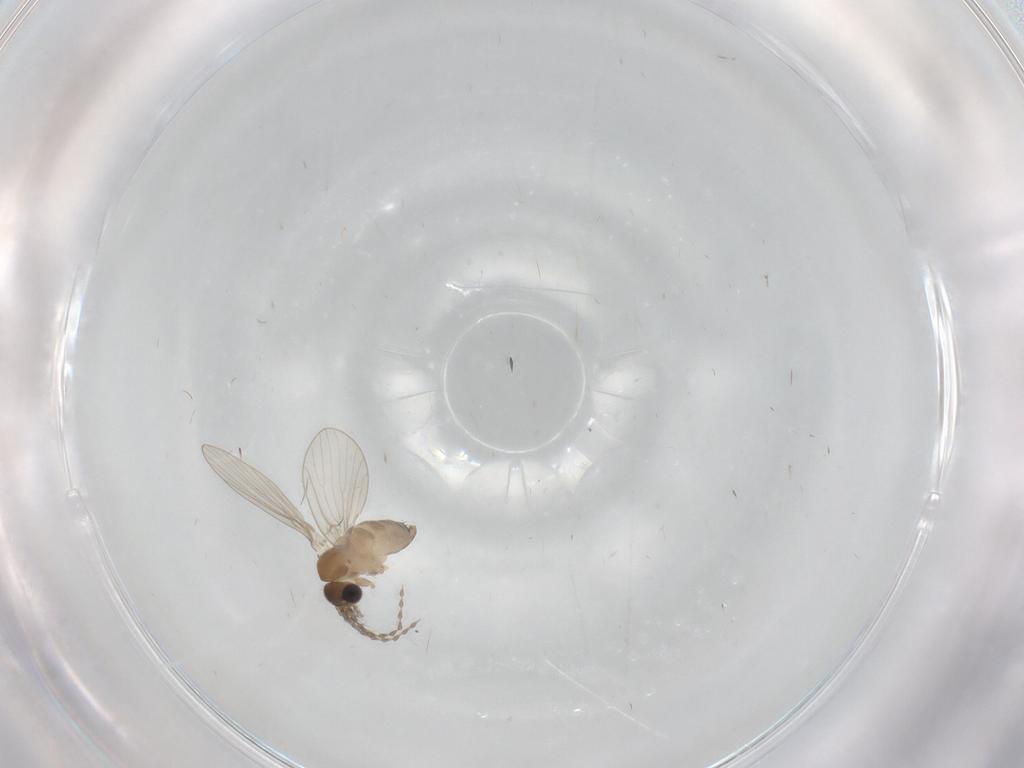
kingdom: Animalia
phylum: Arthropoda
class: Insecta
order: Diptera
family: Psychodidae
